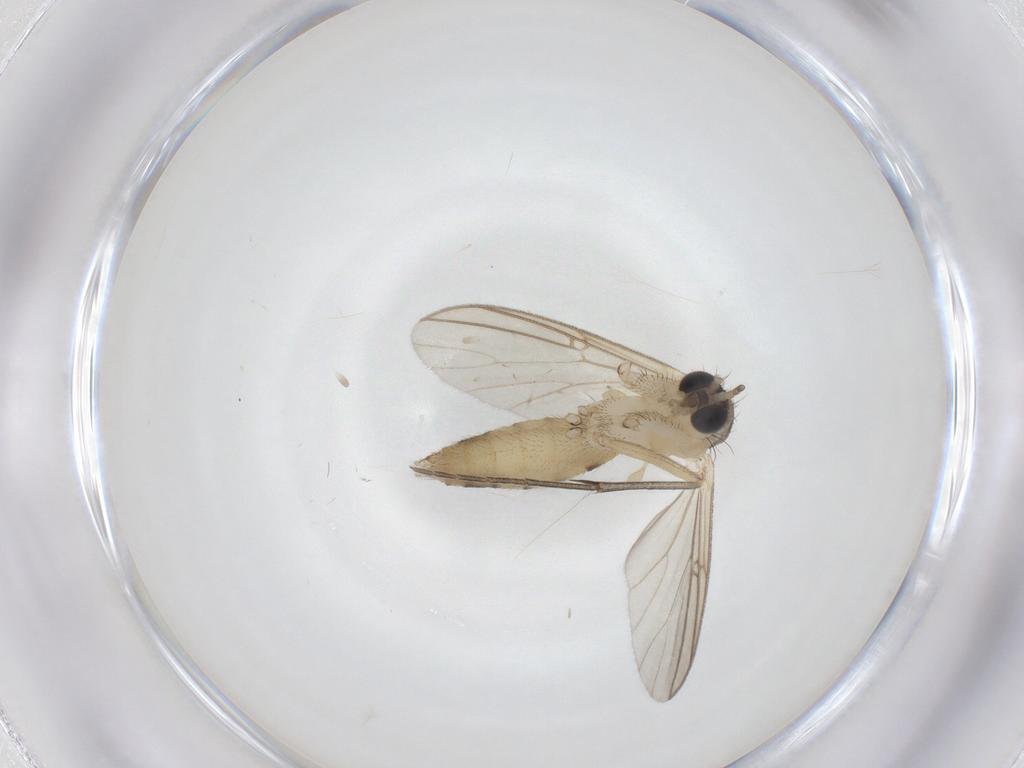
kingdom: Animalia
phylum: Arthropoda
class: Insecta
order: Diptera
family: Mycetophilidae
